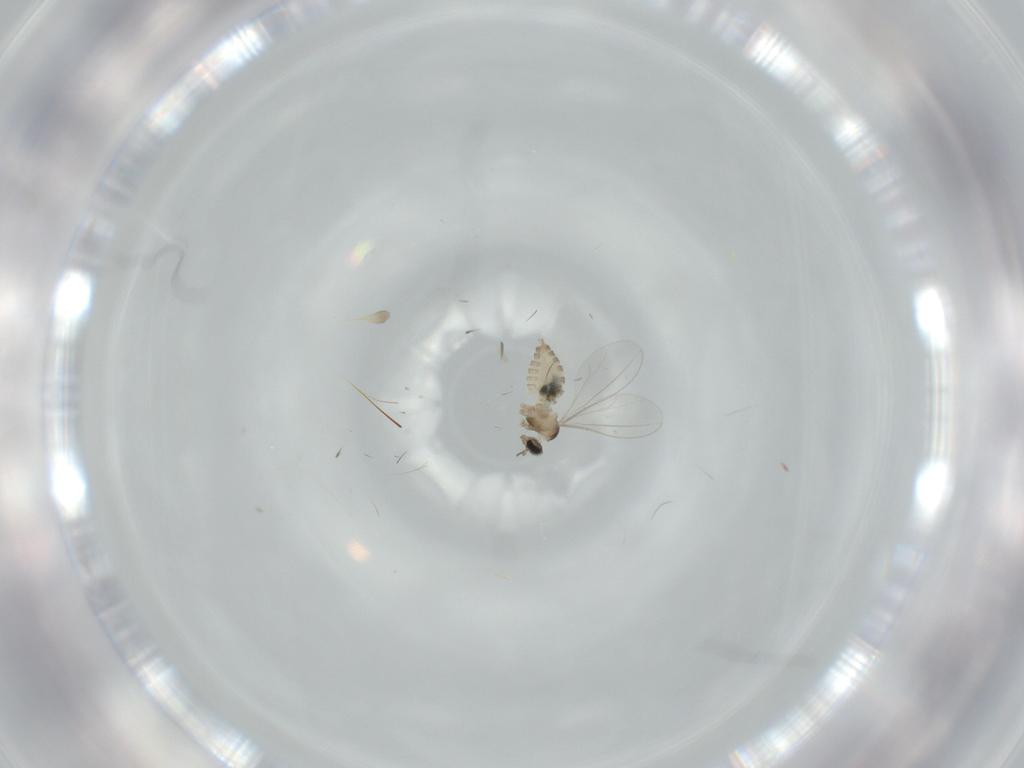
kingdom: Animalia
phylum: Arthropoda
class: Insecta
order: Diptera
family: Cecidomyiidae
